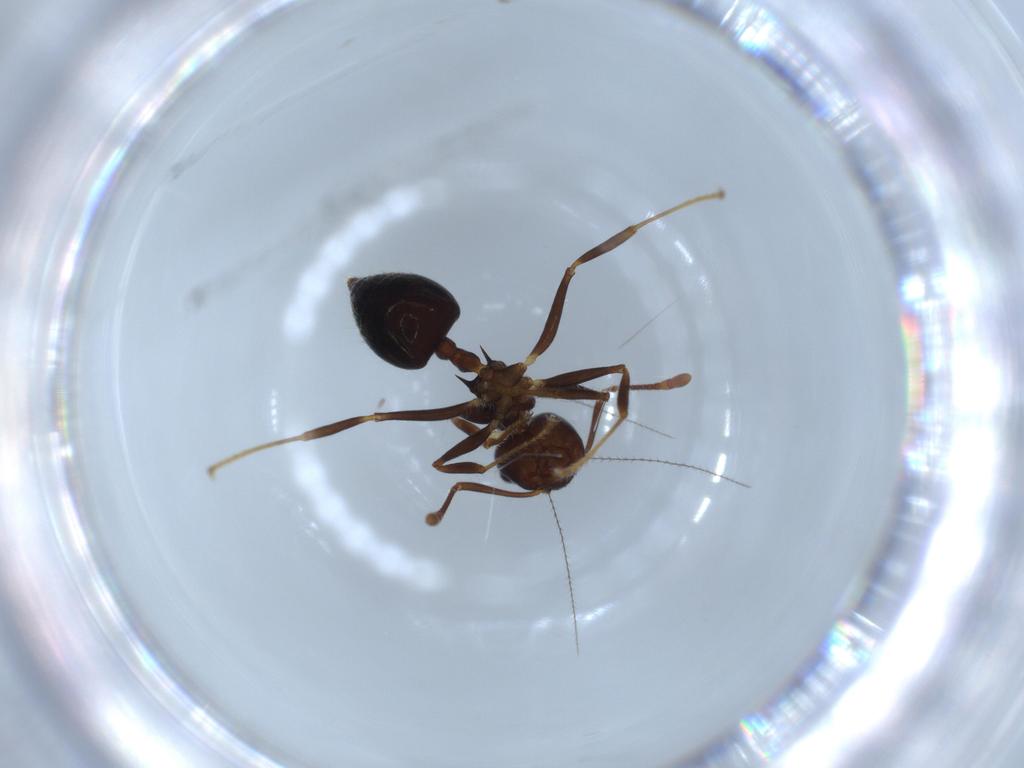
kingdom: Animalia
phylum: Arthropoda
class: Insecta
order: Hymenoptera
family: Formicidae
